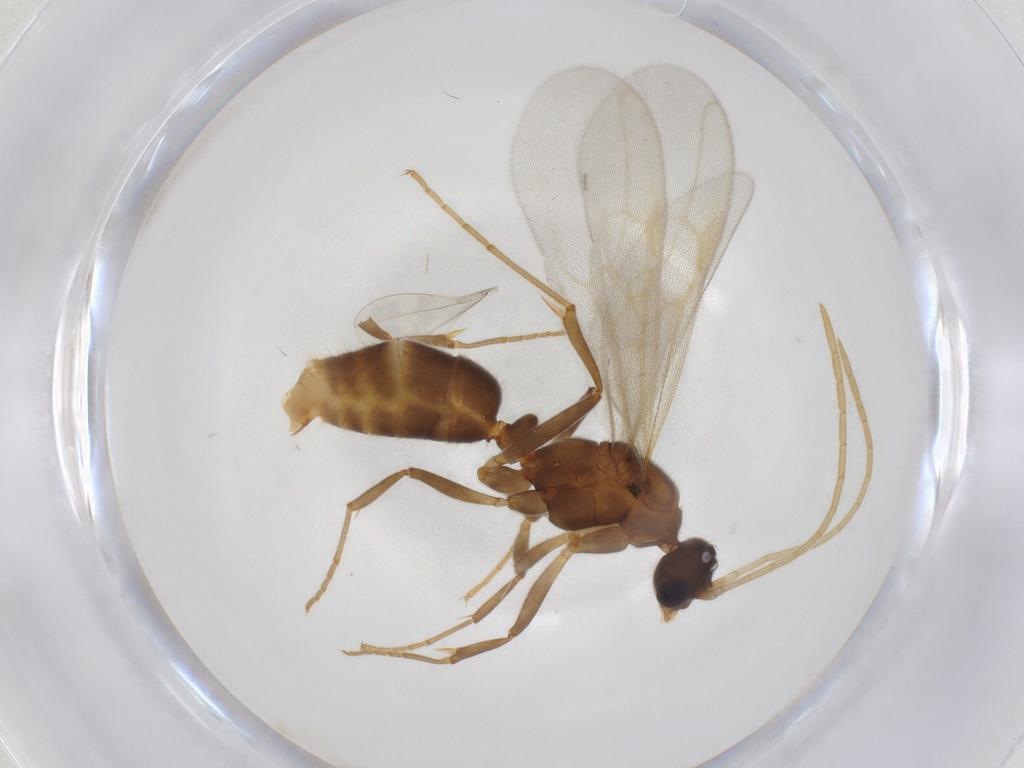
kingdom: Animalia
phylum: Arthropoda
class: Insecta
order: Hymenoptera
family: Formicidae
